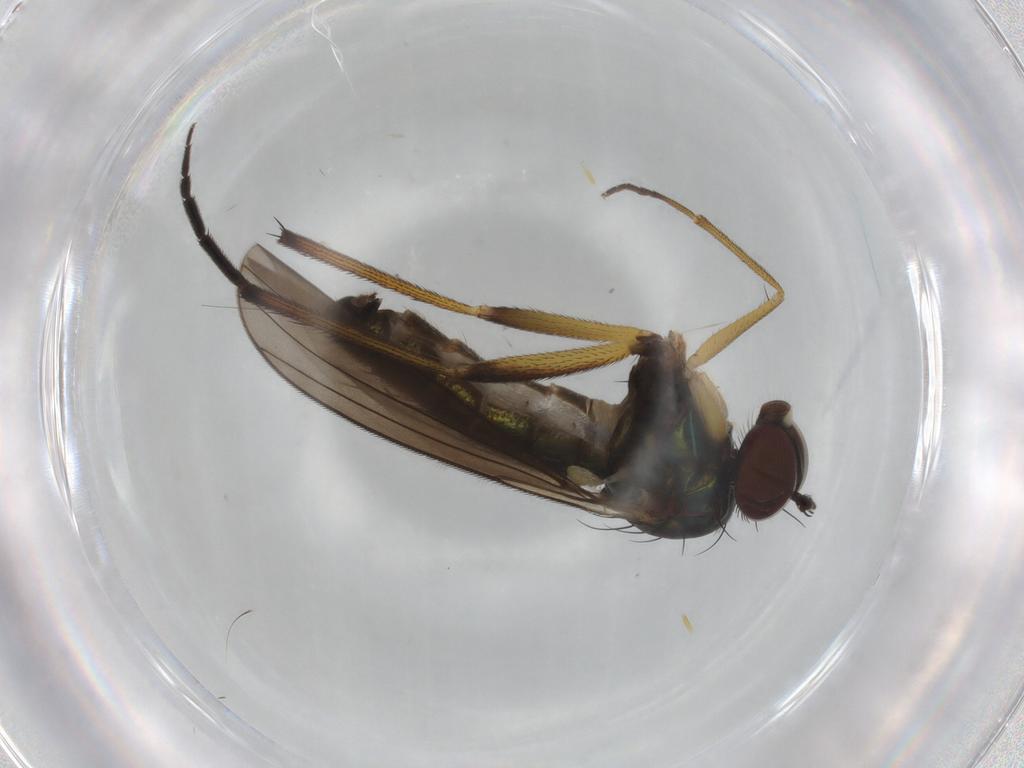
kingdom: Animalia
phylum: Arthropoda
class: Insecta
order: Diptera
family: Dolichopodidae
